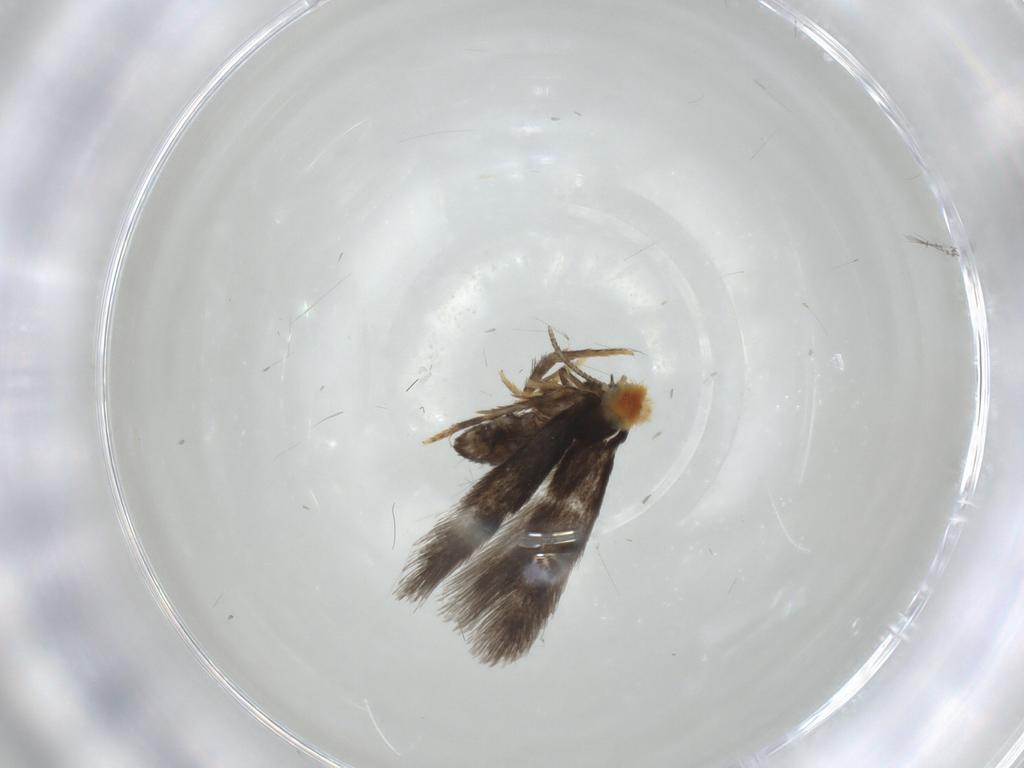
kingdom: Animalia
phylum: Arthropoda
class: Insecta
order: Lepidoptera
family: Nepticulidae
